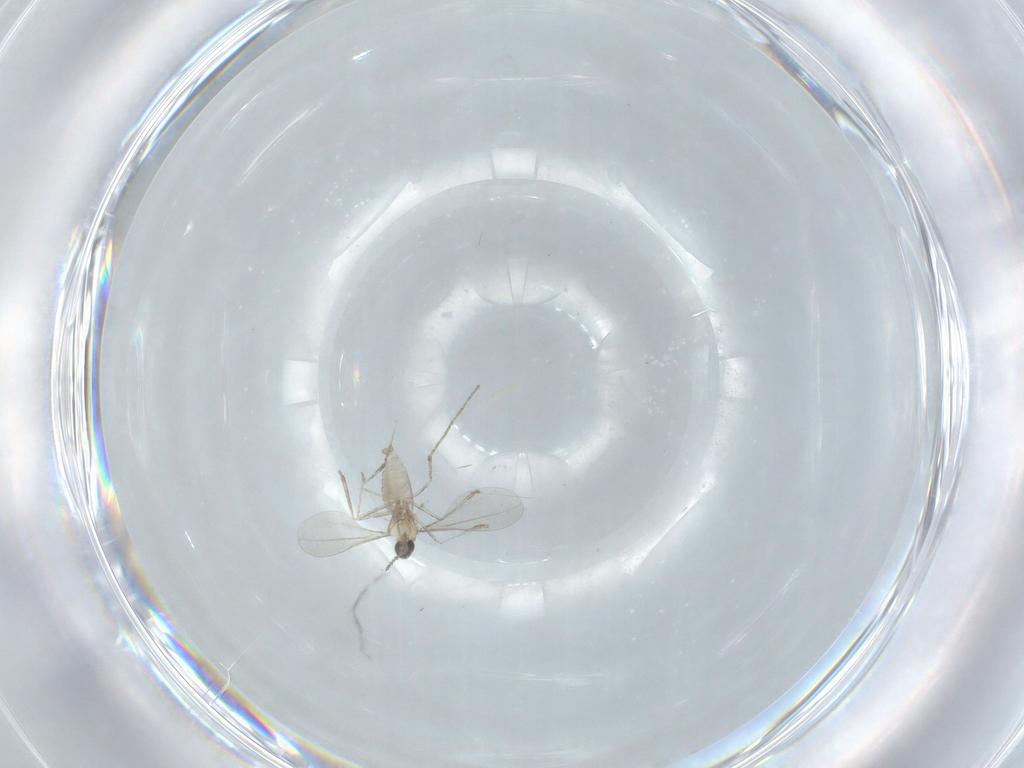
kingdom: Animalia
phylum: Arthropoda
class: Insecta
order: Diptera
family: Cecidomyiidae
